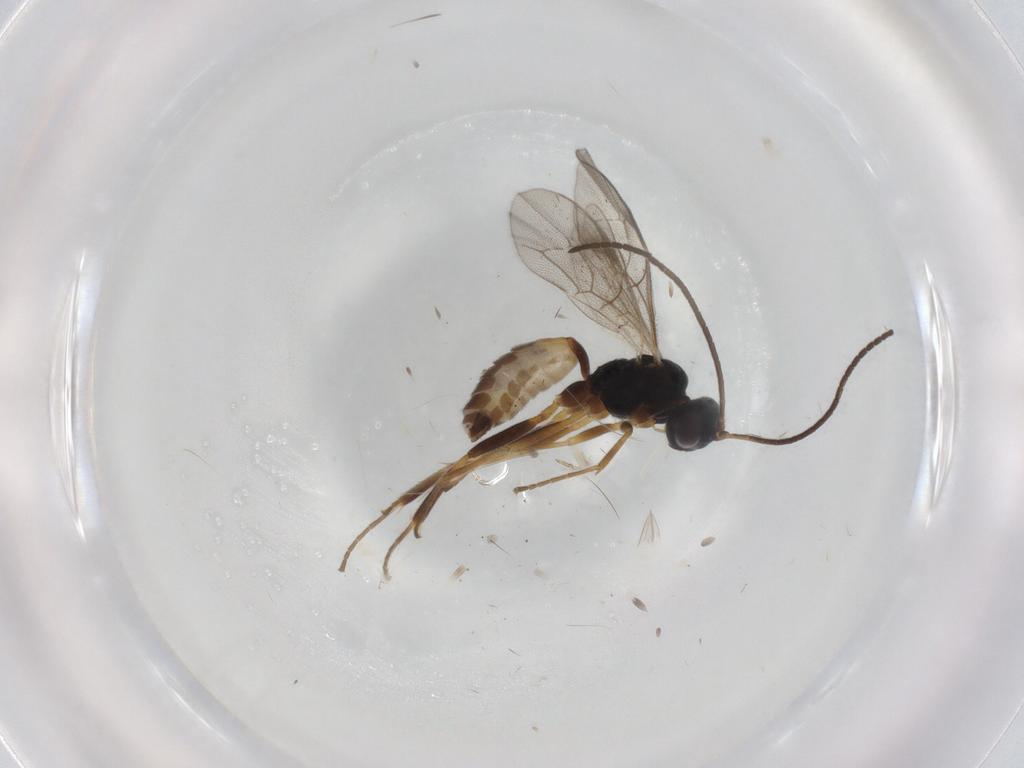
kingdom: Animalia
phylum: Arthropoda
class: Insecta
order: Hymenoptera
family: Ichneumonidae
